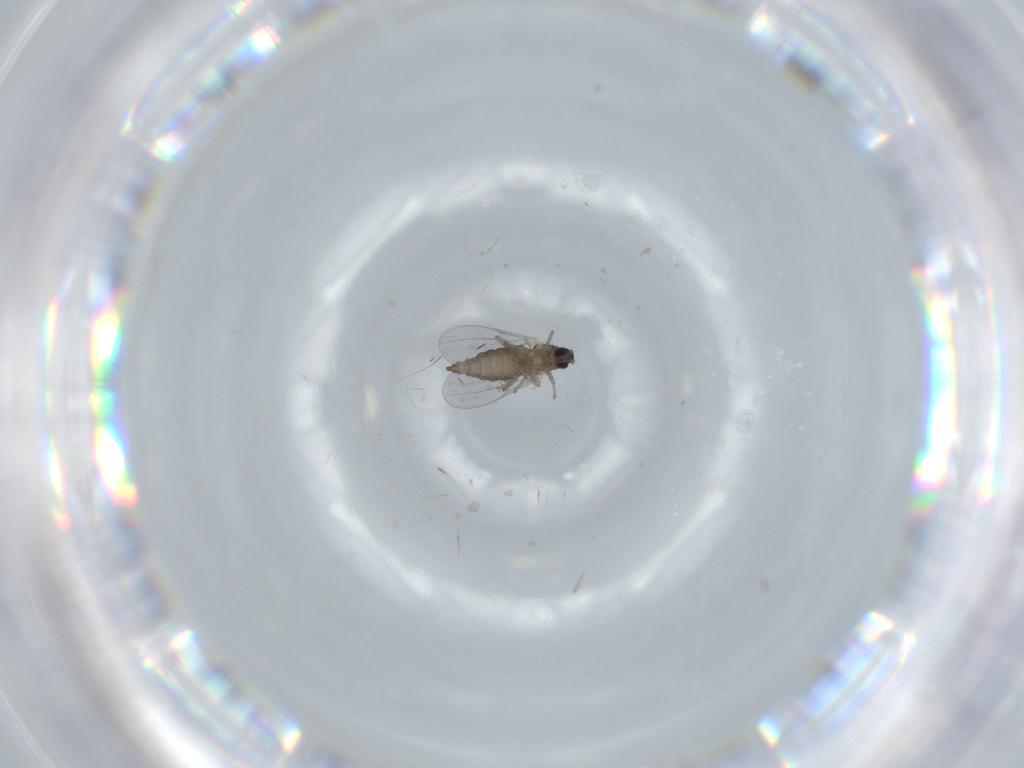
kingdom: Animalia
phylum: Arthropoda
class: Insecta
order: Diptera
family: Cecidomyiidae
